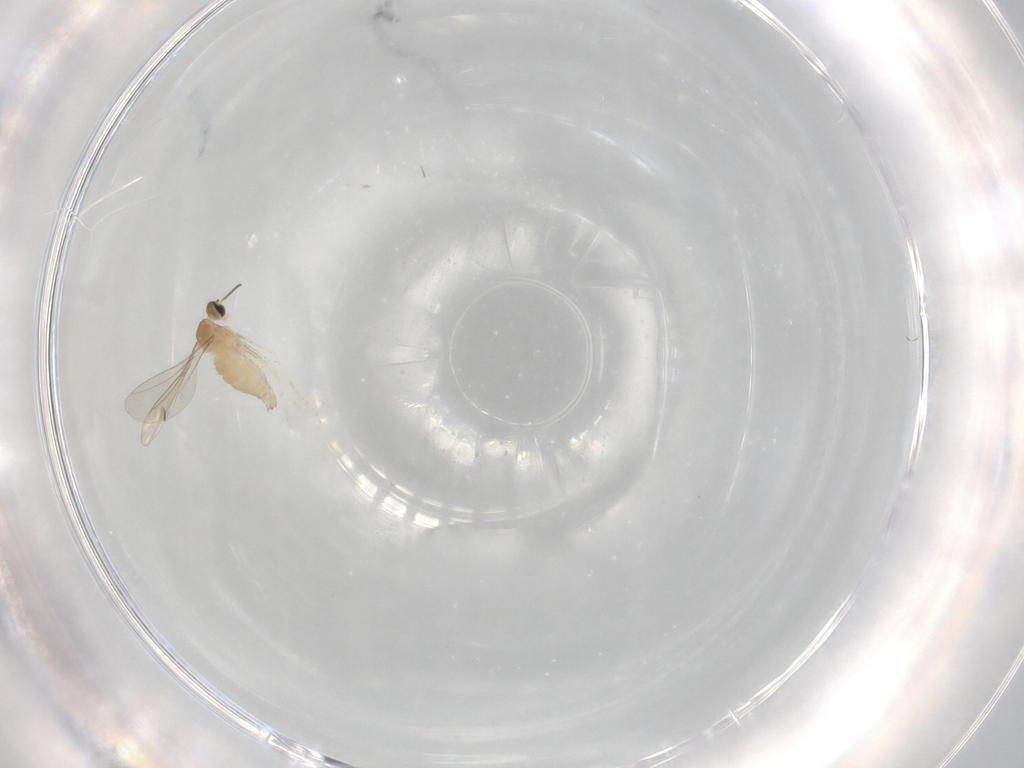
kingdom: Animalia
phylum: Arthropoda
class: Insecta
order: Diptera
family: Cecidomyiidae
